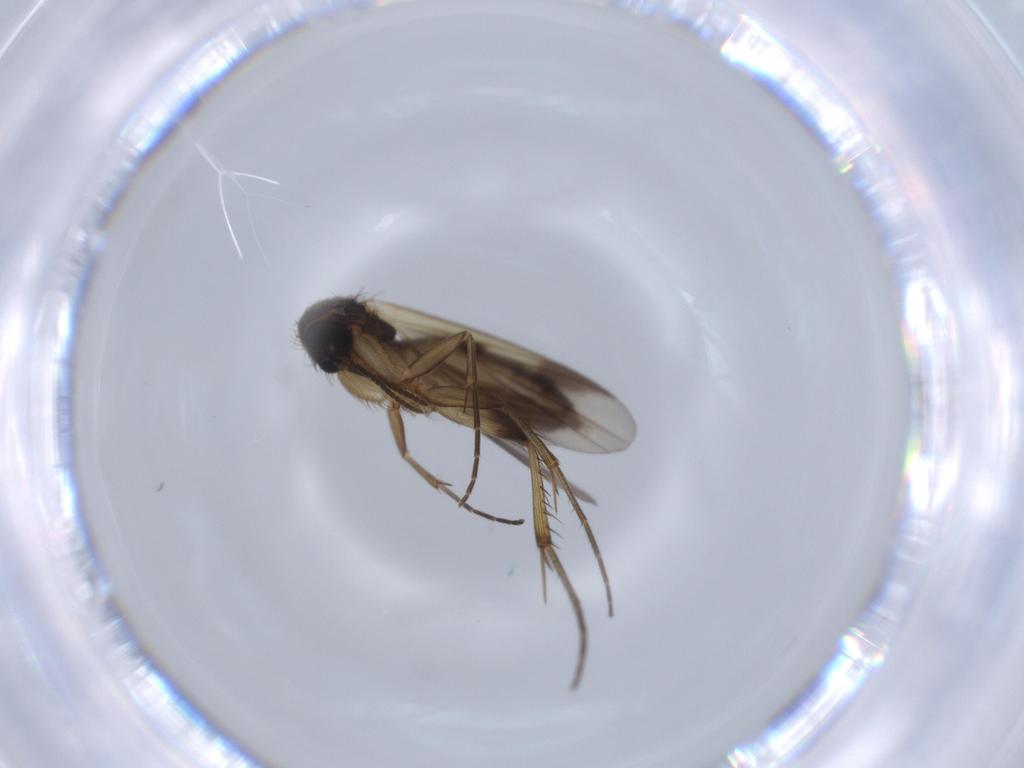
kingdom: Animalia
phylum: Arthropoda
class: Insecta
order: Diptera
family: Mycetophilidae
